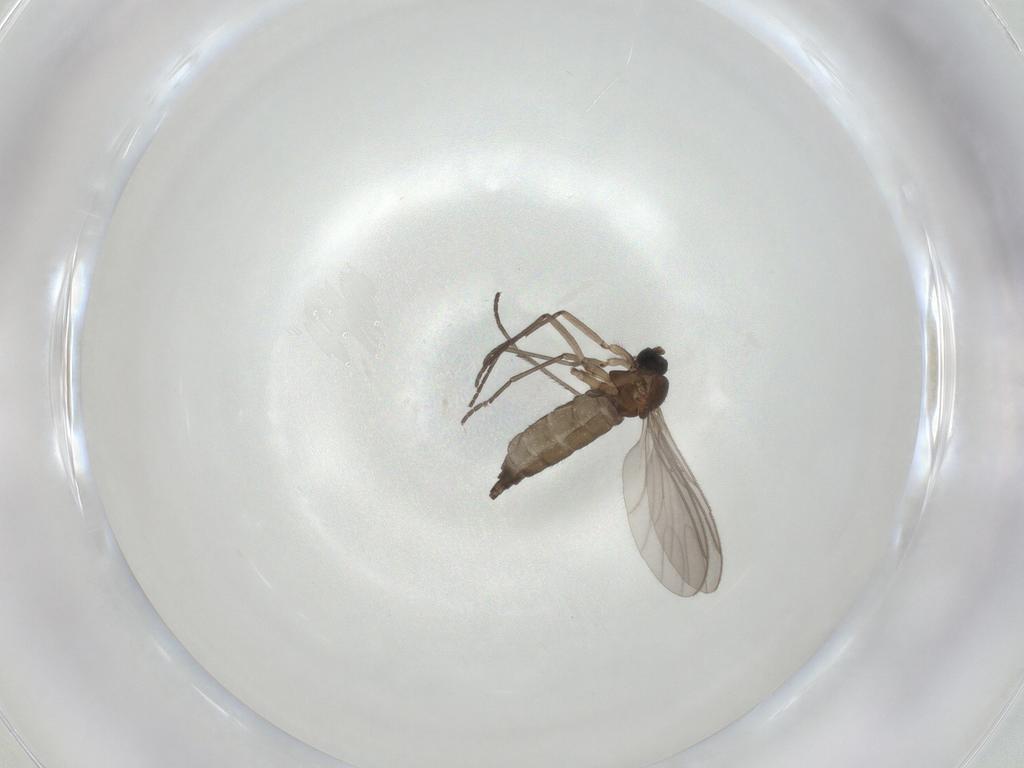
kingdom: Animalia
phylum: Arthropoda
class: Insecta
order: Diptera
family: Sciaridae
